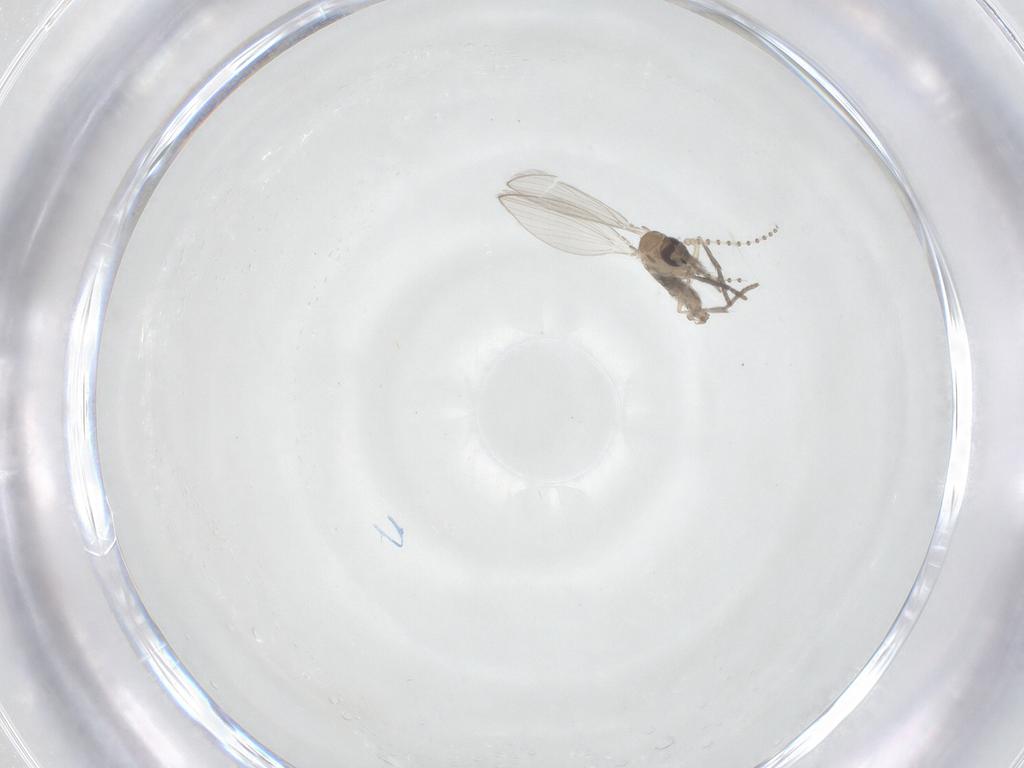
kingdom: Animalia
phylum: Arthropoda
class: Insecta
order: Diptera
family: Psychodidae
